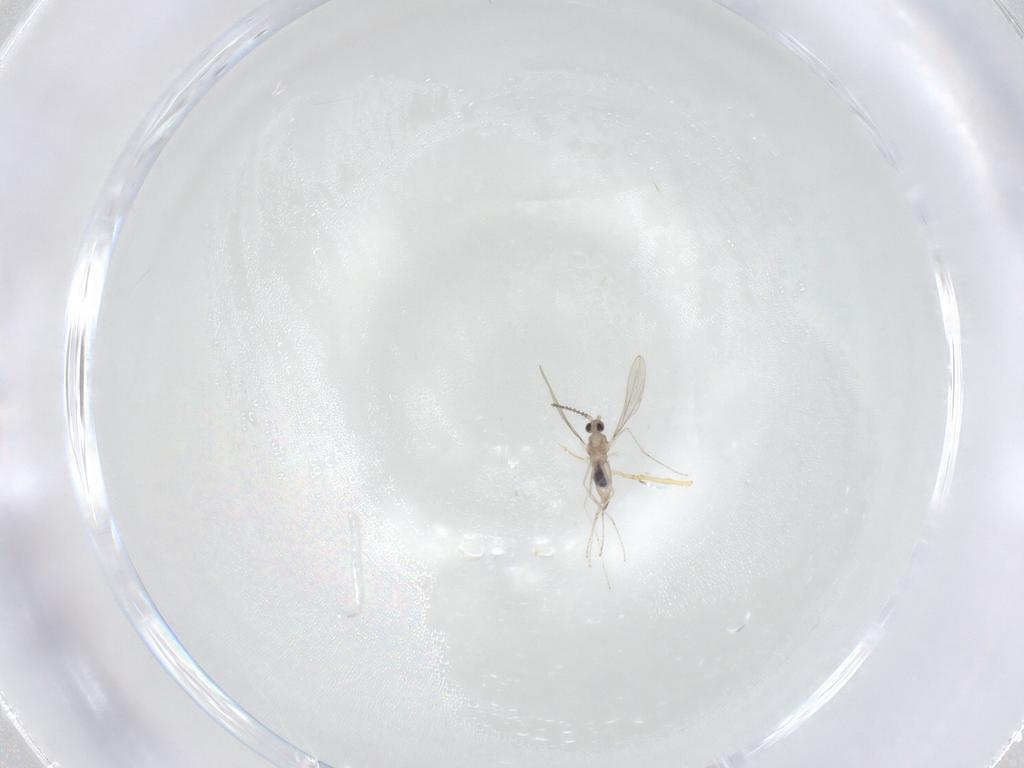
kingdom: Animalia
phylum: Arthropoda
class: Insecta
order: Diptera
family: Cecidomyiidae
